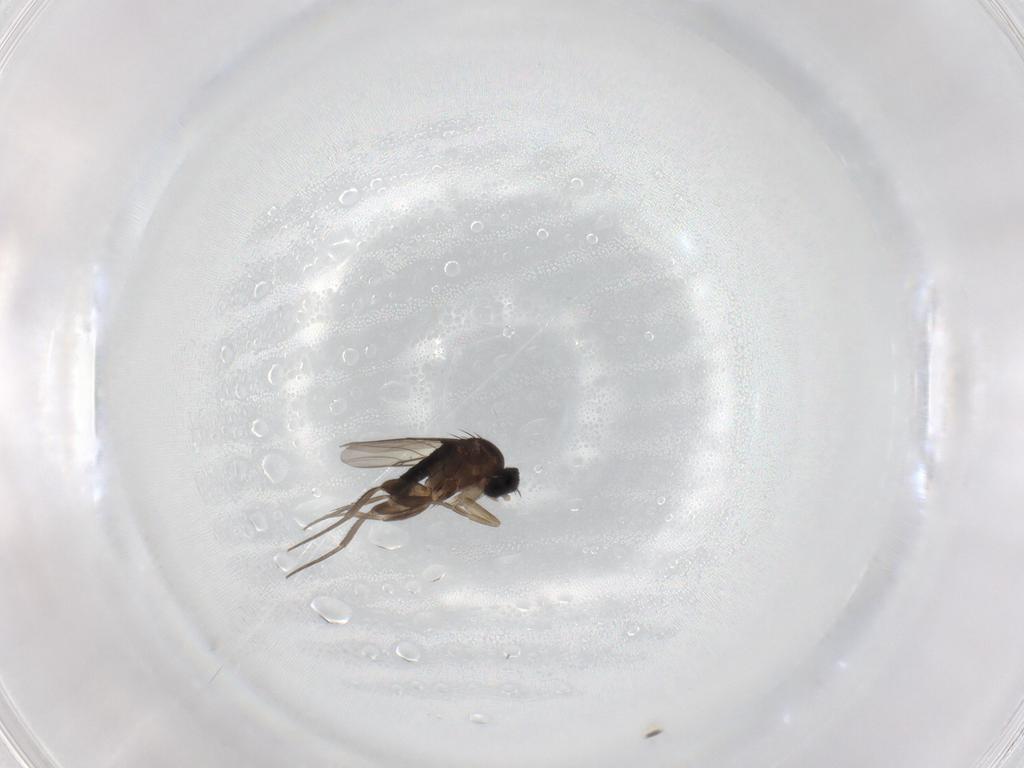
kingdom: Animalia
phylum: Arthropoda
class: Insecta
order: Diptera
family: Phoridae
